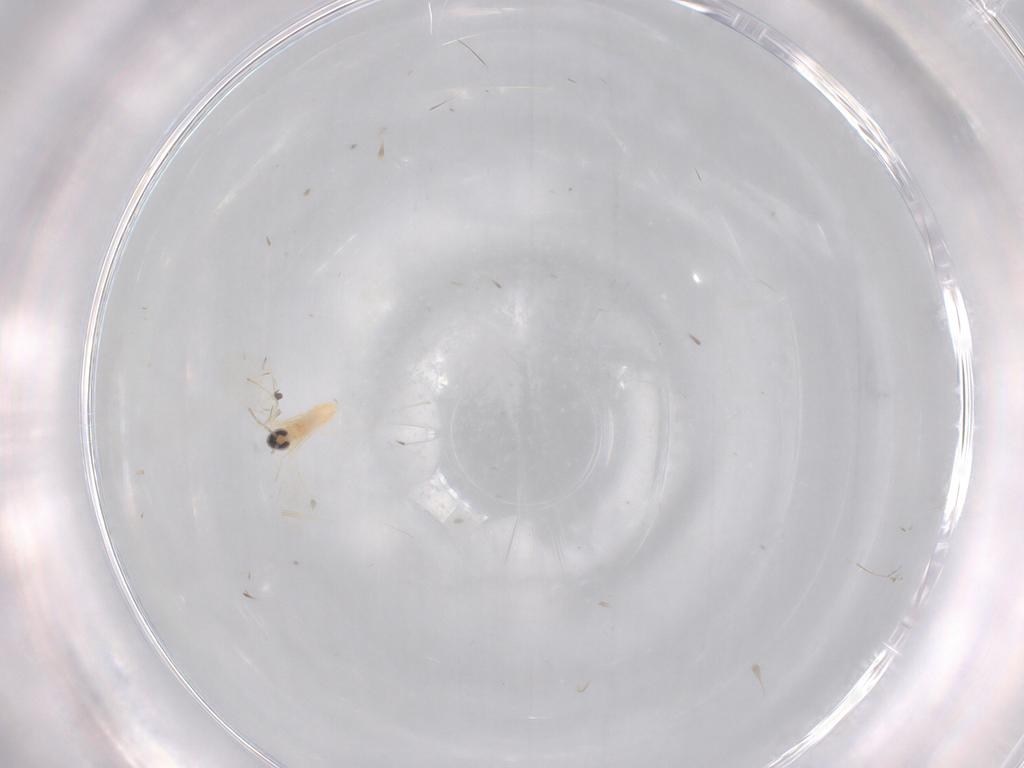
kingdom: Animalia
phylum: Arthropoda
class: Insecta
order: Diptera
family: Cecidomyiidae
